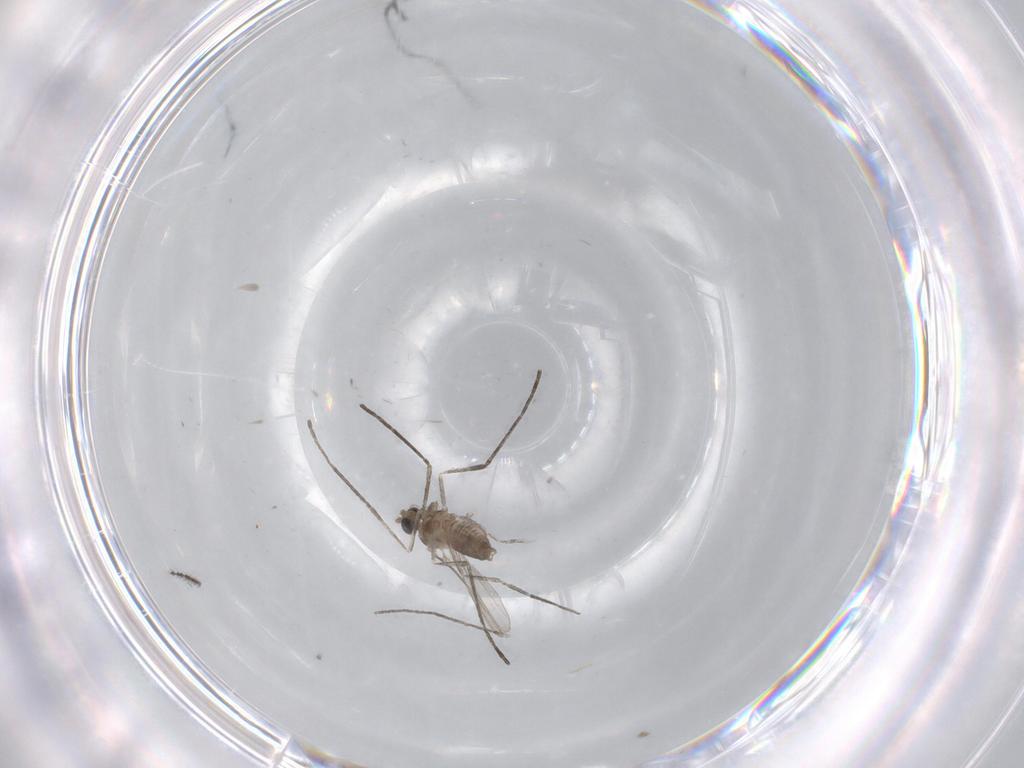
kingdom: Animalia
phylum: Arthropoda
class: Insecta
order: Diptera
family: Cecidomyiidae
